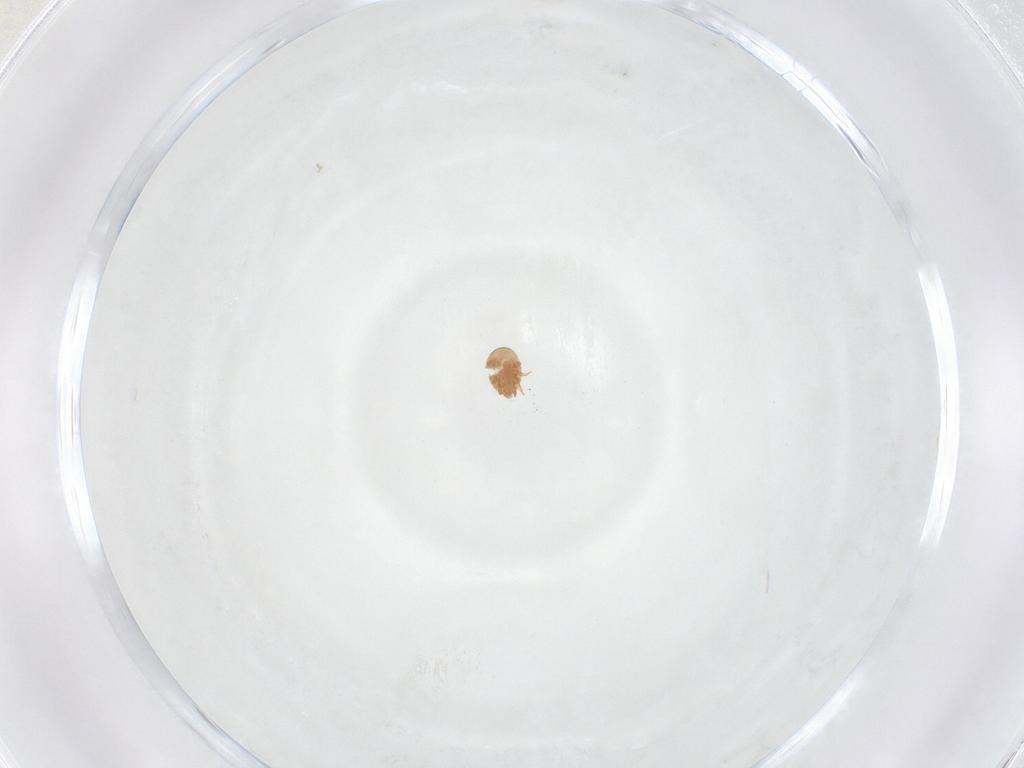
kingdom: Animalia
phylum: Arthropoda
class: Arachnida
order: Mesostigmata
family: Trematuridae
